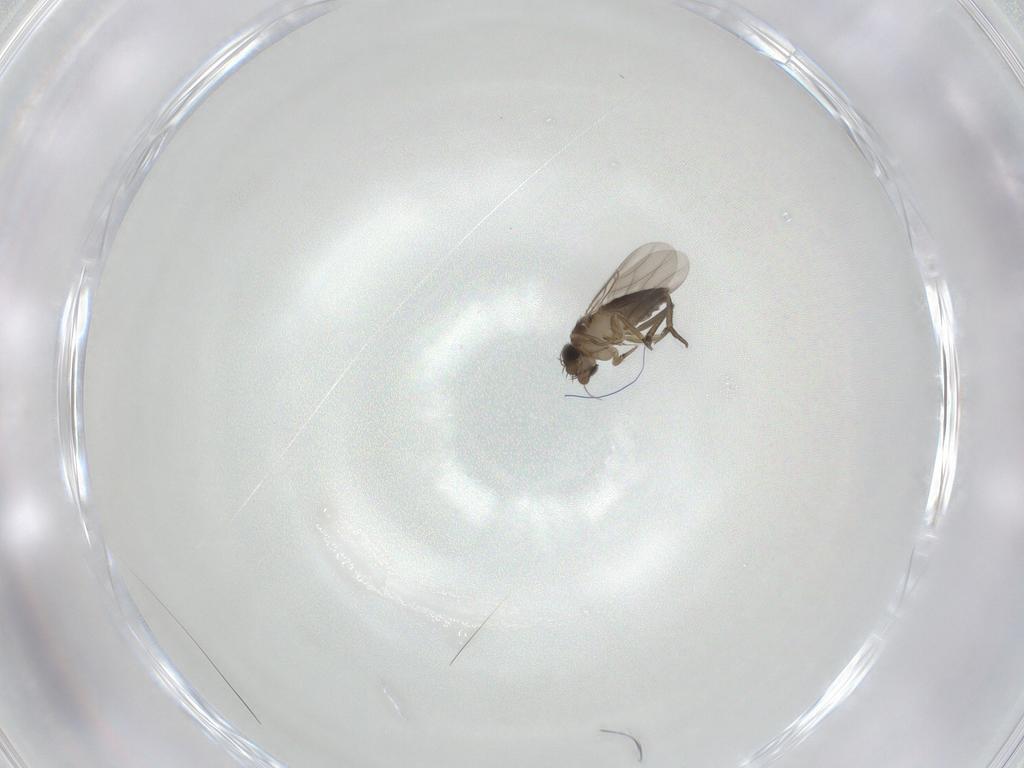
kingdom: Animalia
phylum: Arthropoda
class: Insecta
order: Diptera
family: Phoridae
